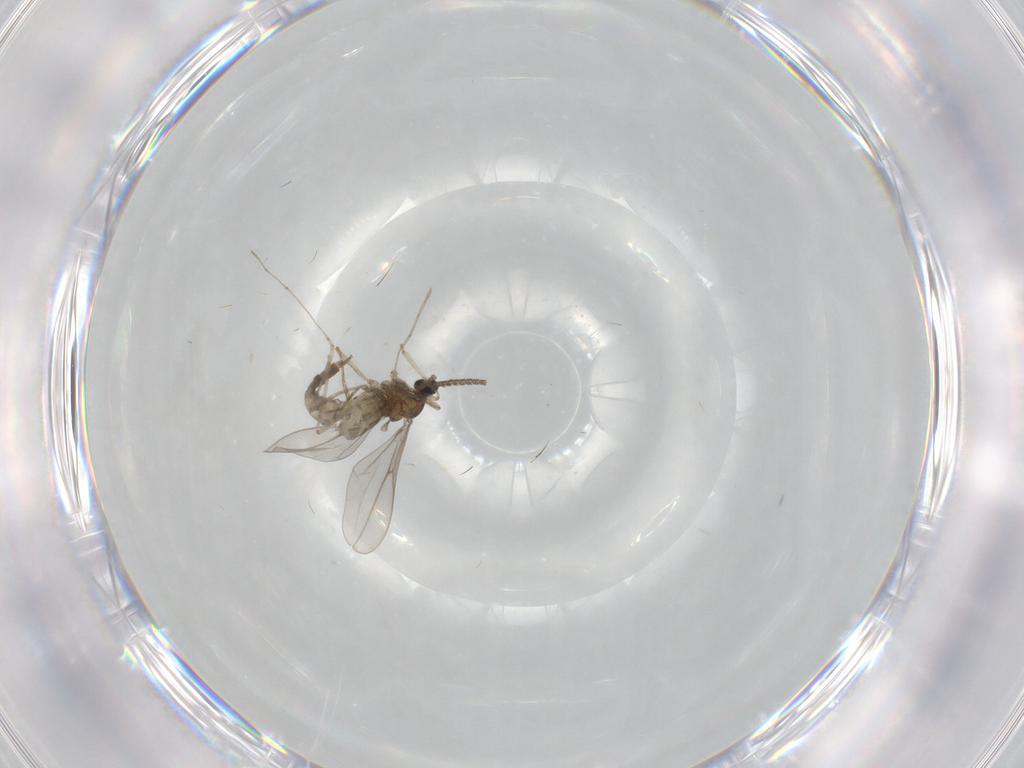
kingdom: Animalia
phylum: Arthropoda
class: Insecta
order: Diptera
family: Cecidomyiidae
